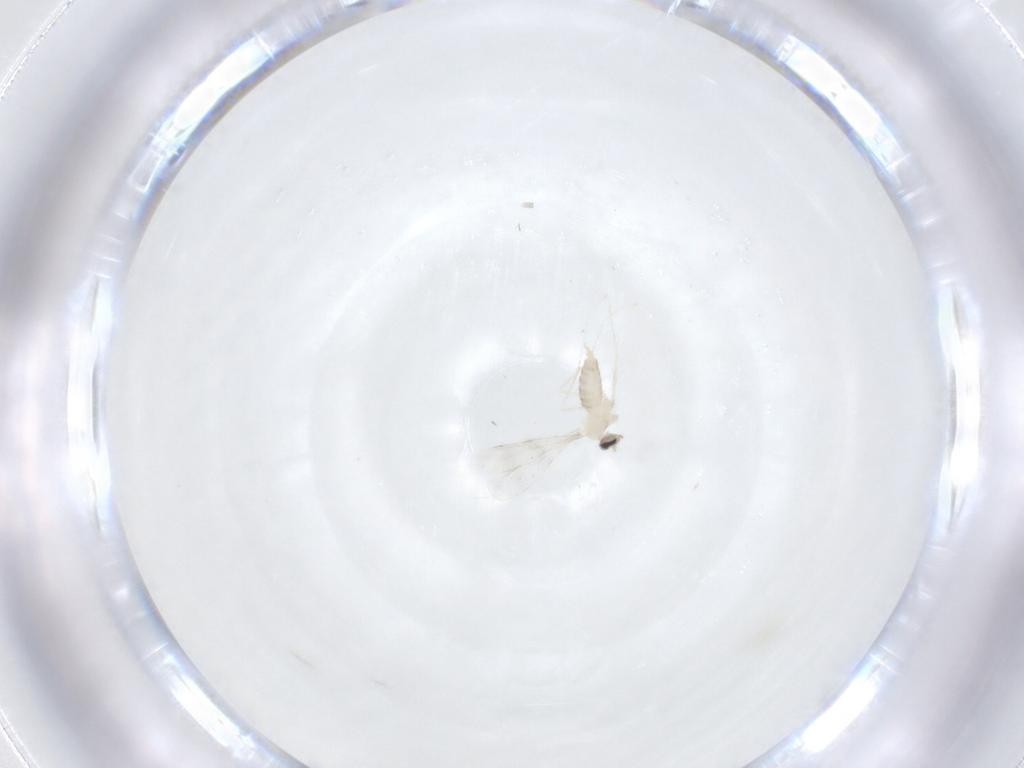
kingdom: Animalia
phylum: Arthropoda
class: Insecta
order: Diptera
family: Cecidomyiidae
